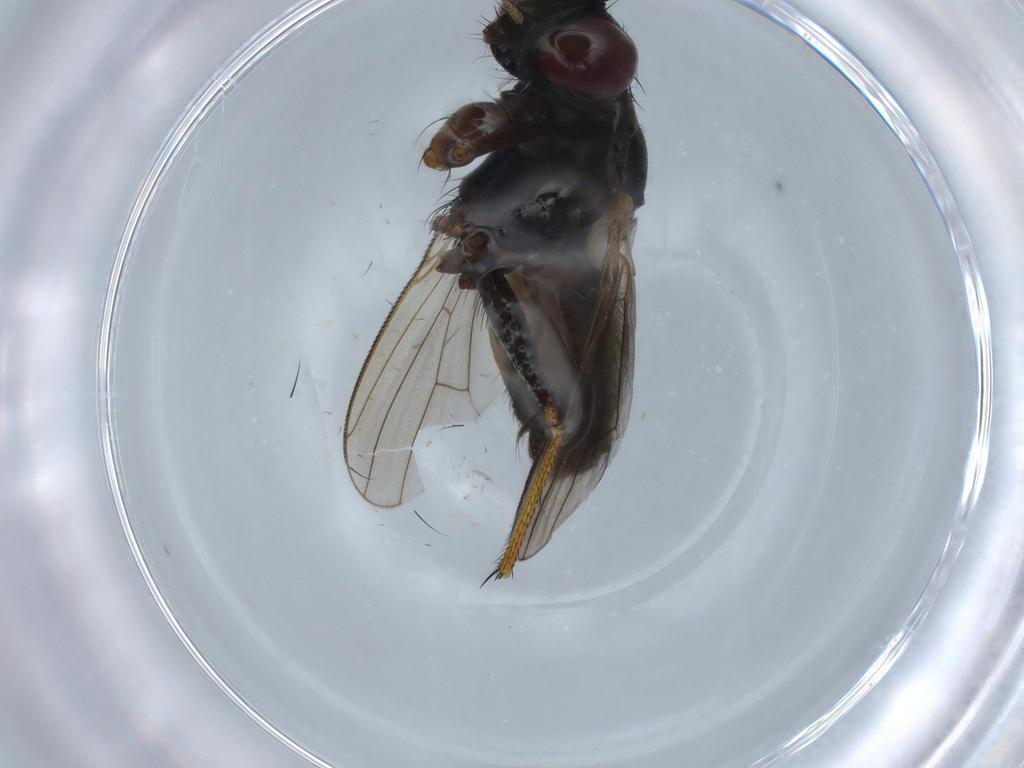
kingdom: Animalia
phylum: Arthropoda
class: Insecta
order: Diptera
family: Muscidae
